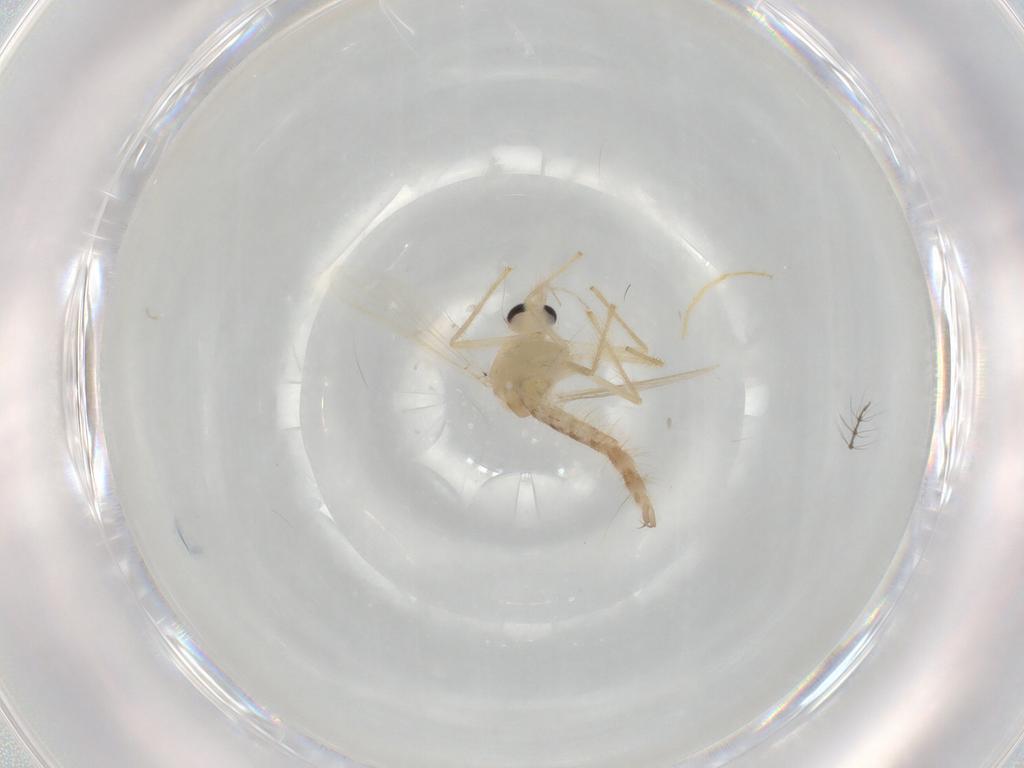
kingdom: Animalia
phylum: Arthropoda
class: Insecta
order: Diptera
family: Chironomidae
